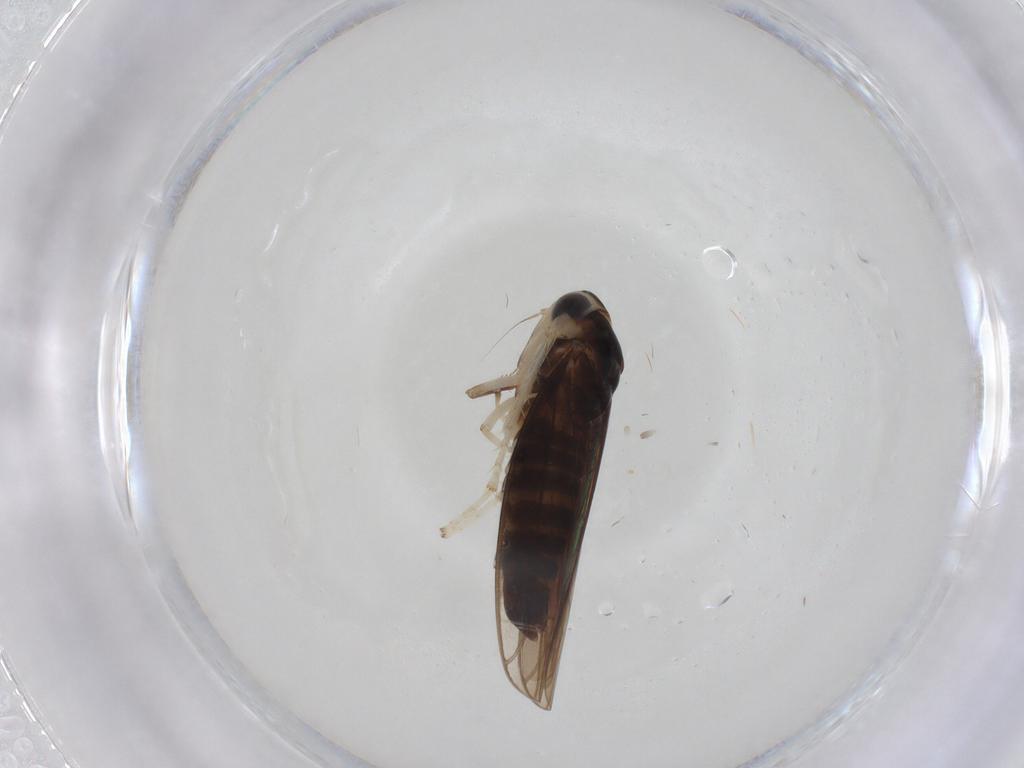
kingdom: Animalia
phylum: Arthropoda
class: Insecta
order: Hemiptera
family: Cicadellidae
